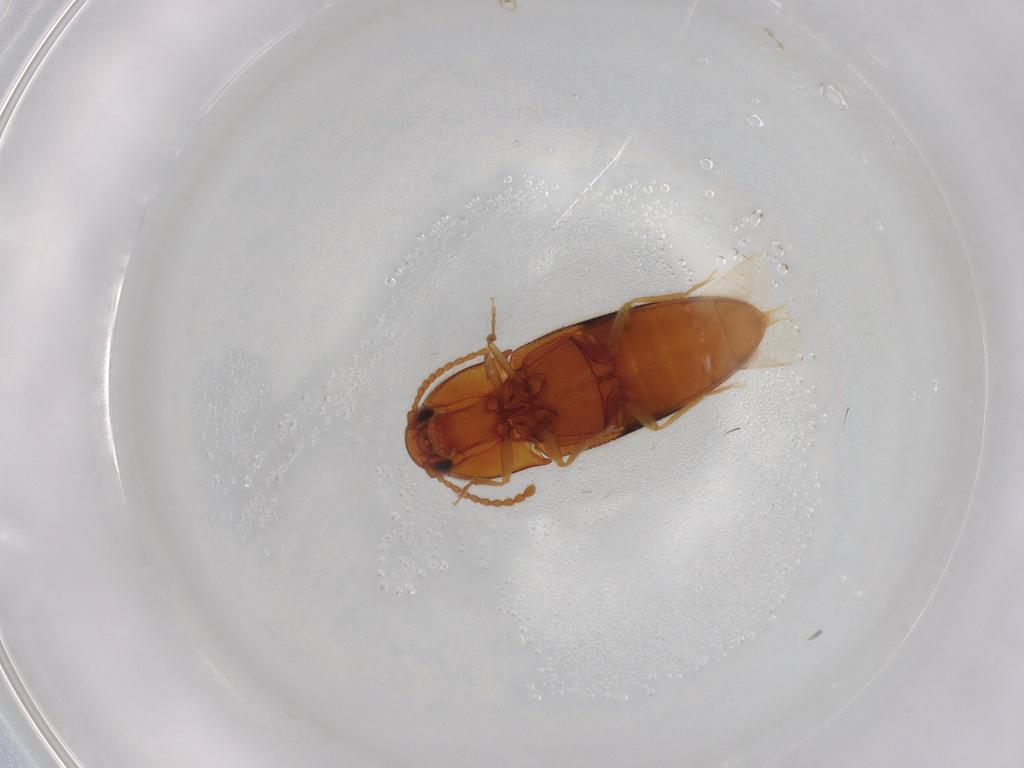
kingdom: Animalia
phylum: Arthropoda
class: Insecta
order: Coleoptera
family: Elateridae
